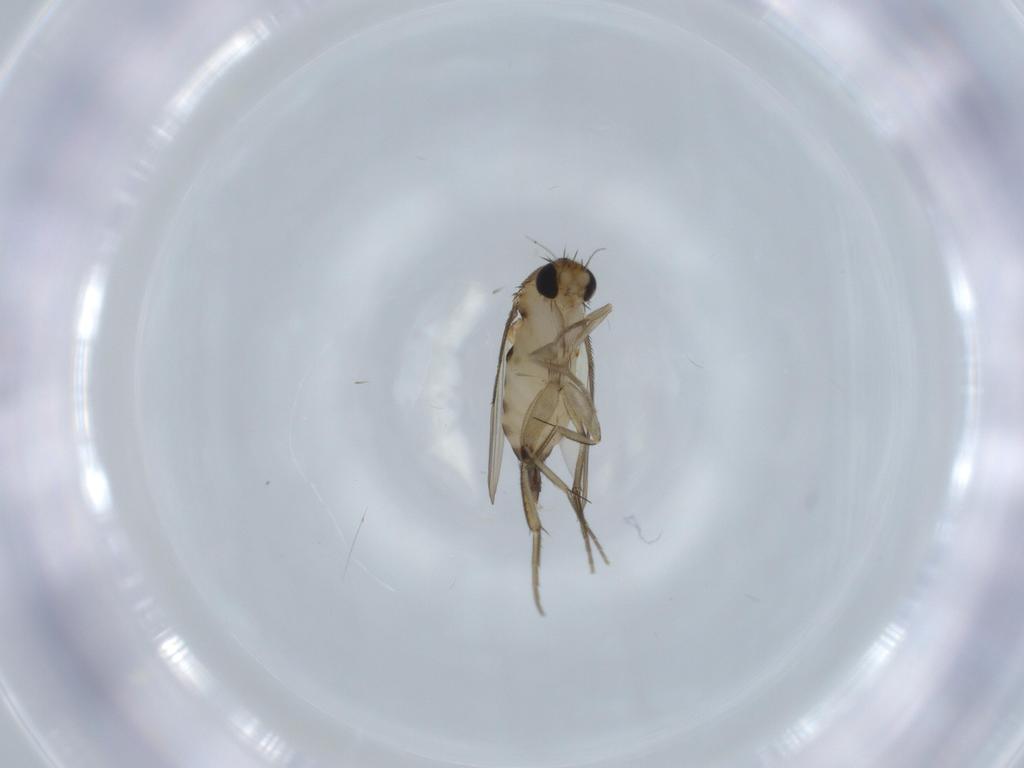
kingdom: Animalia
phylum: Arthropoda
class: Insecta
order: Diptera
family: Phoridae
